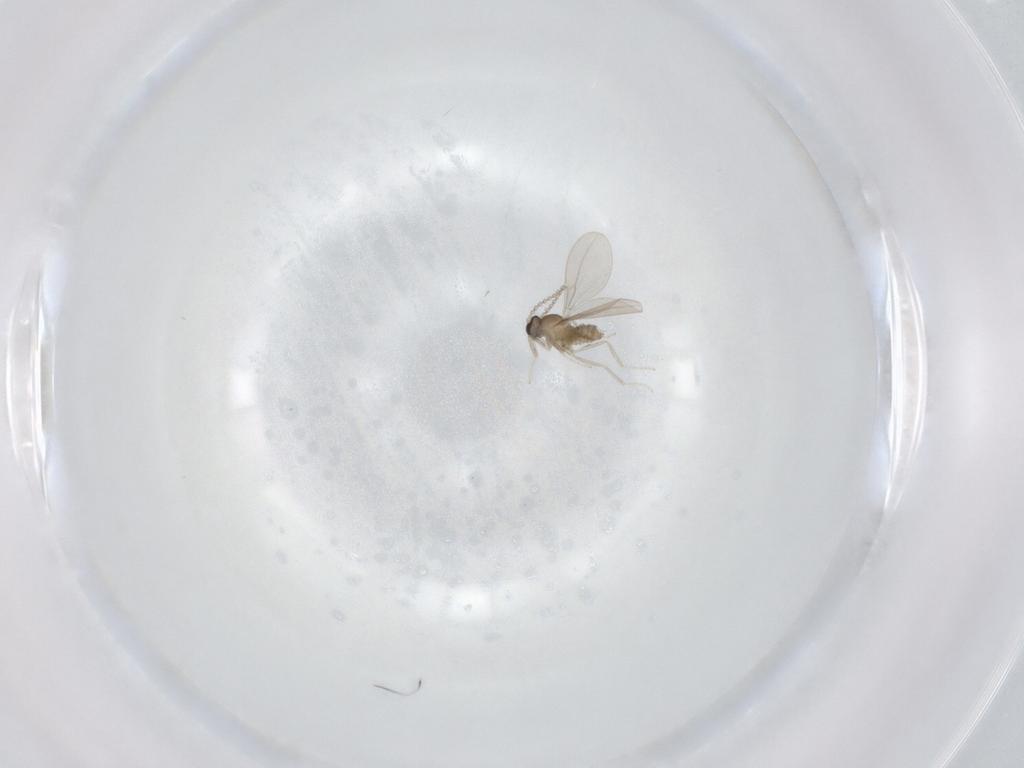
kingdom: Animalia
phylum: Arthropoda
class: Insecta
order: Diptera
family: Cecidomyiidae
